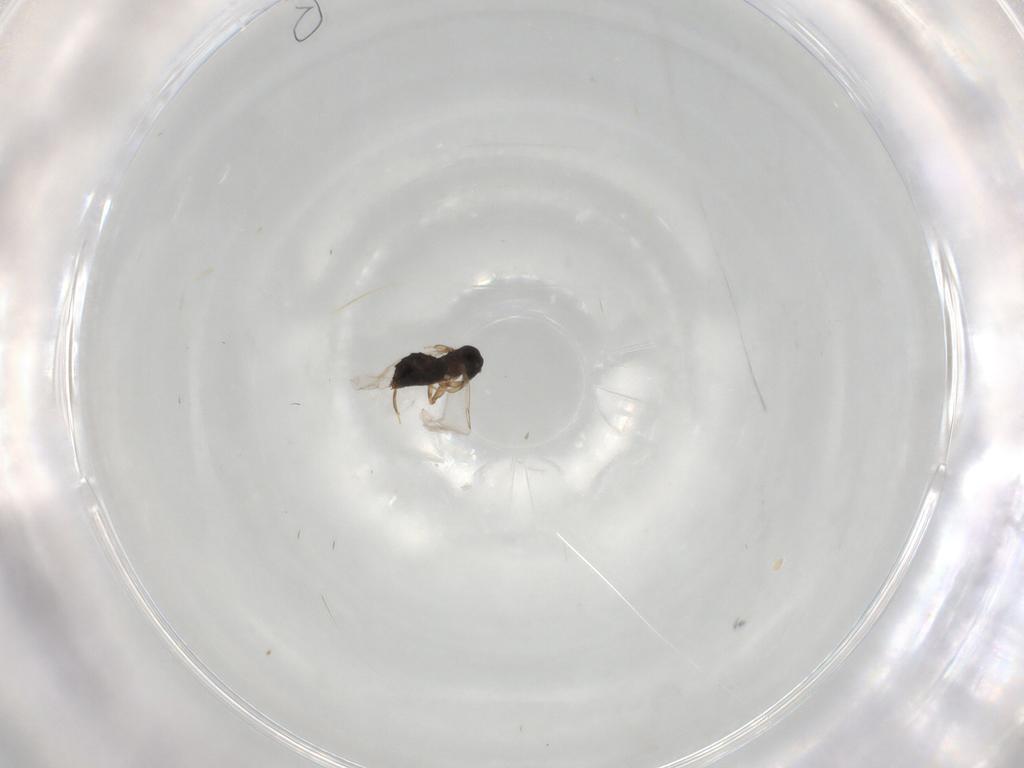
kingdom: Animalia
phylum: Arthropoda
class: Insecta
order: Diptera
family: Scatopsidae
